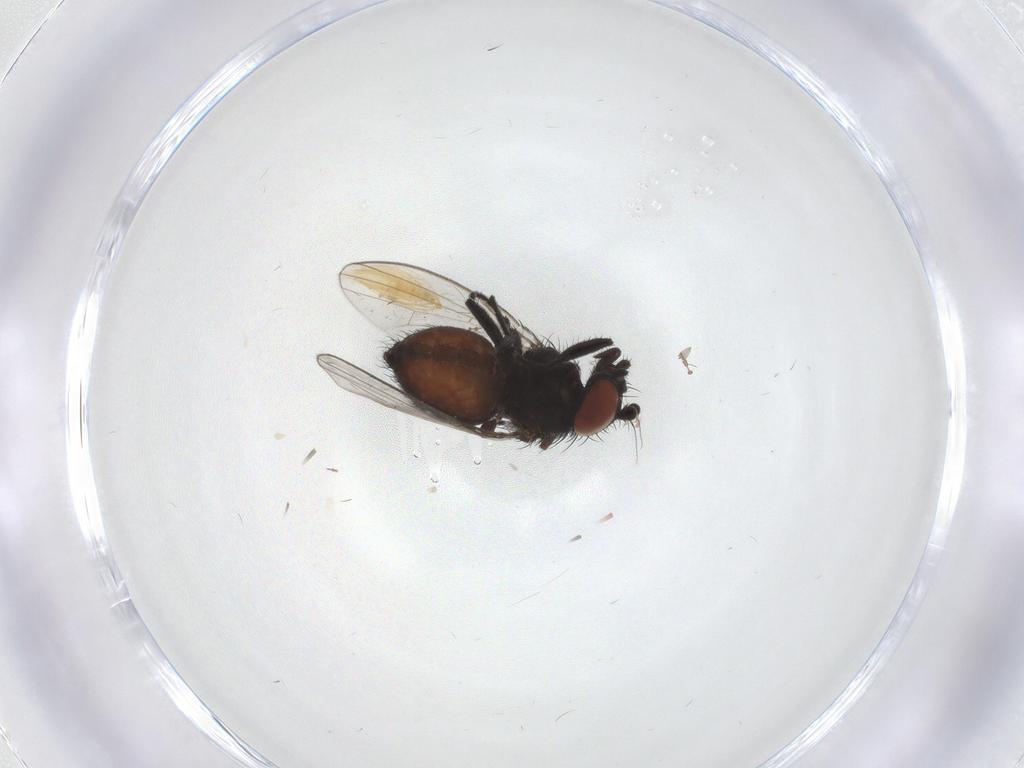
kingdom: Animalia
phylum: Arthropoda
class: Insecta
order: Diptera
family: Milichiidae
